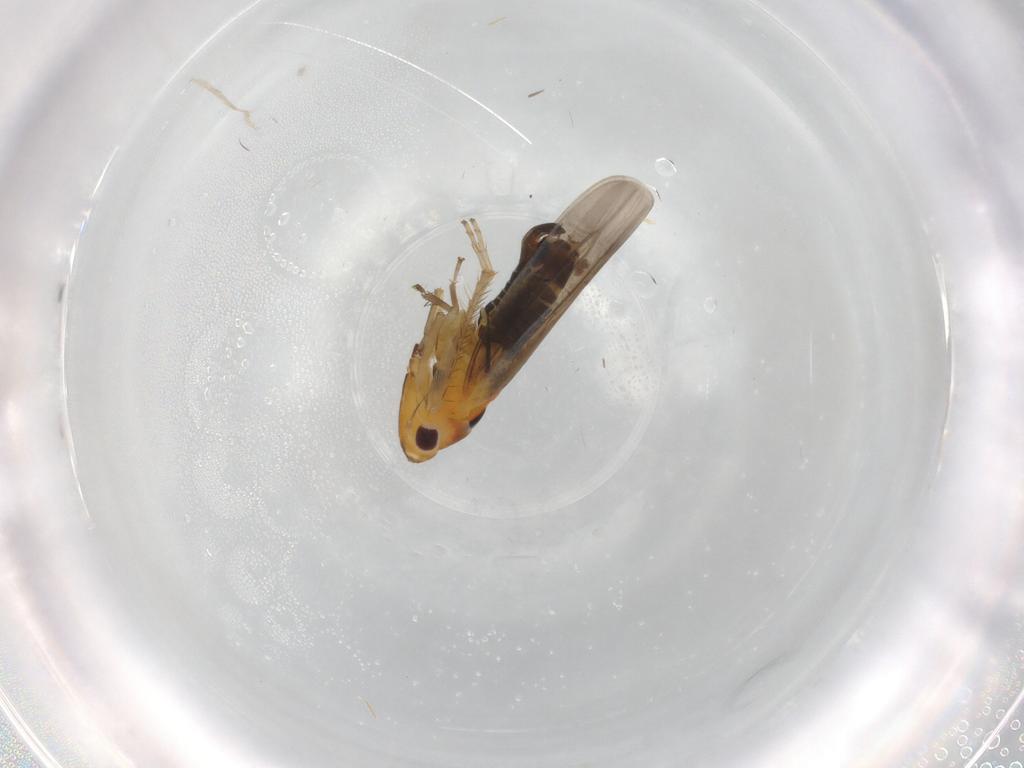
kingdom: Animalia
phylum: Arthropoda
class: Insecta
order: Hemiptera
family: Cicadellidae
